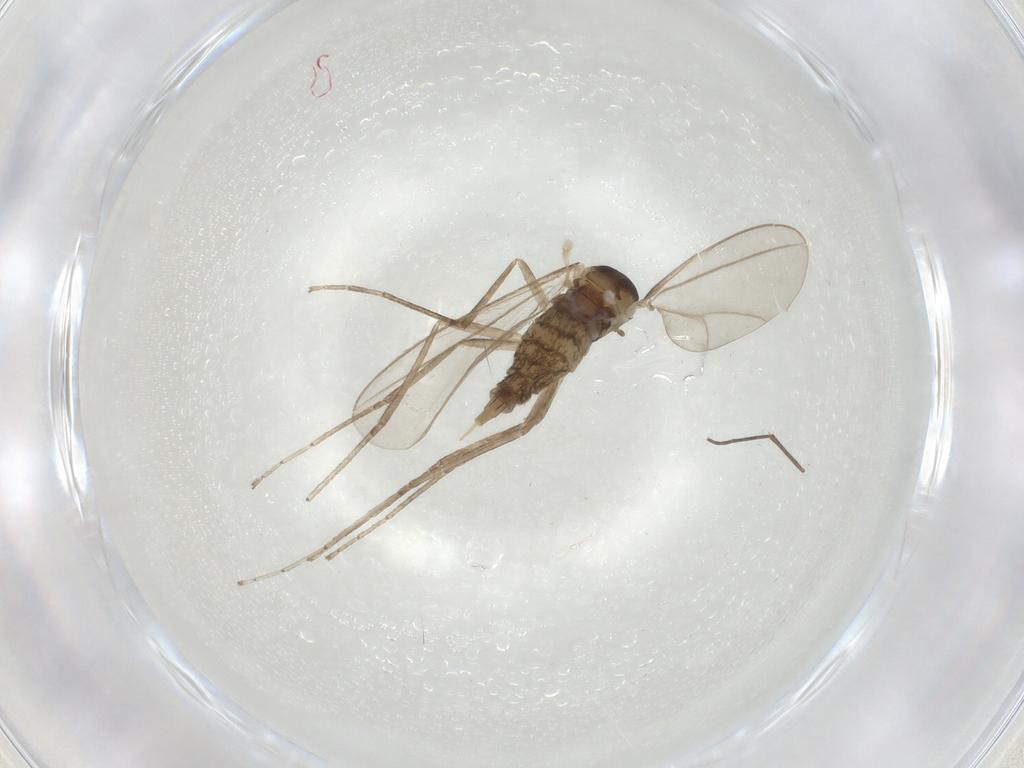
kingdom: Animalia
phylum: Arthropoda
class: Insecta
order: Diptera
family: Sciaridae
